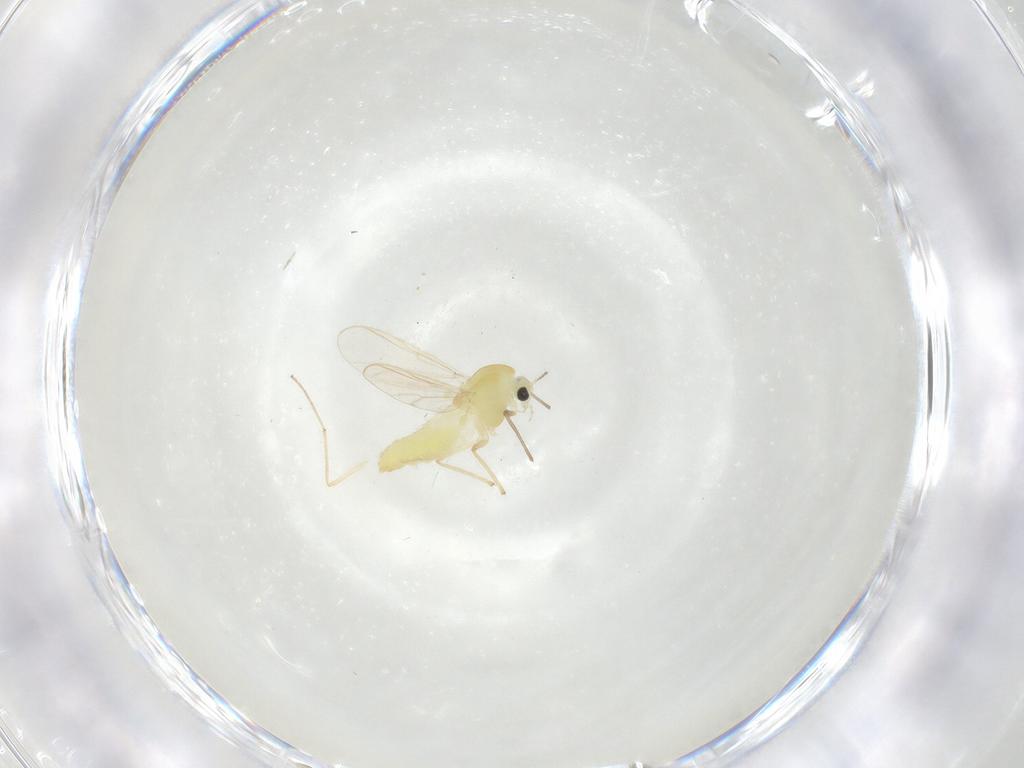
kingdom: Animalia
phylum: Arthropoda
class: Insecta
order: Diptera
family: Chironomidae
